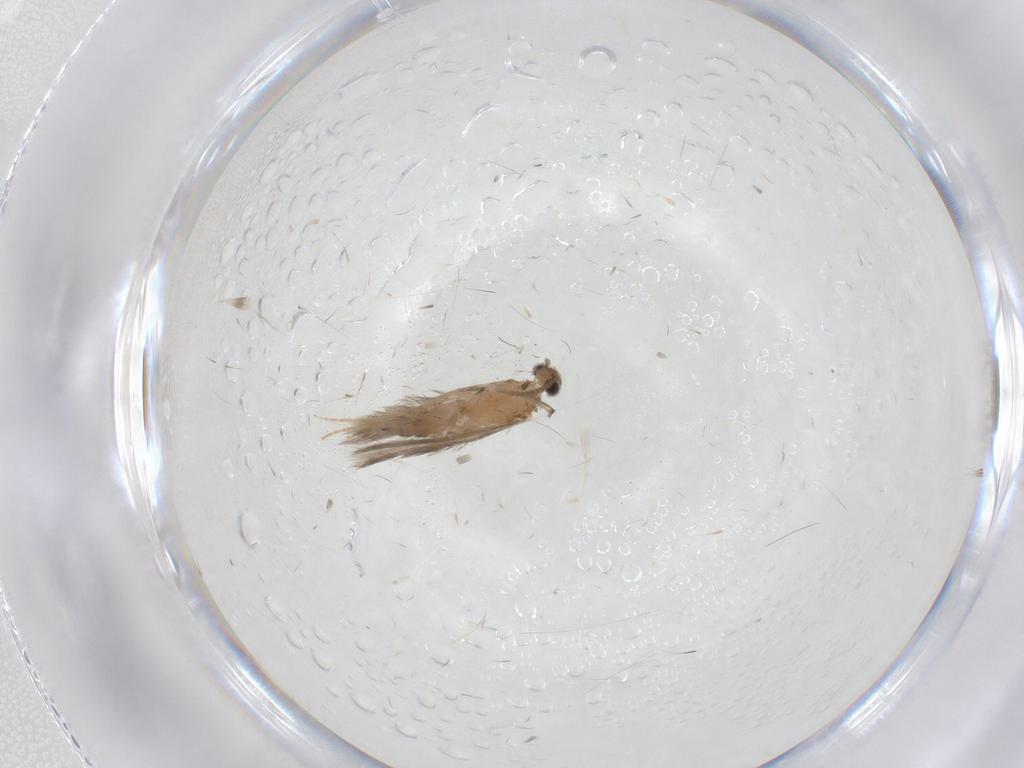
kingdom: Animalia
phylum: Arthropoda
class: Insecta
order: Lepidoptera
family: Tineidae
